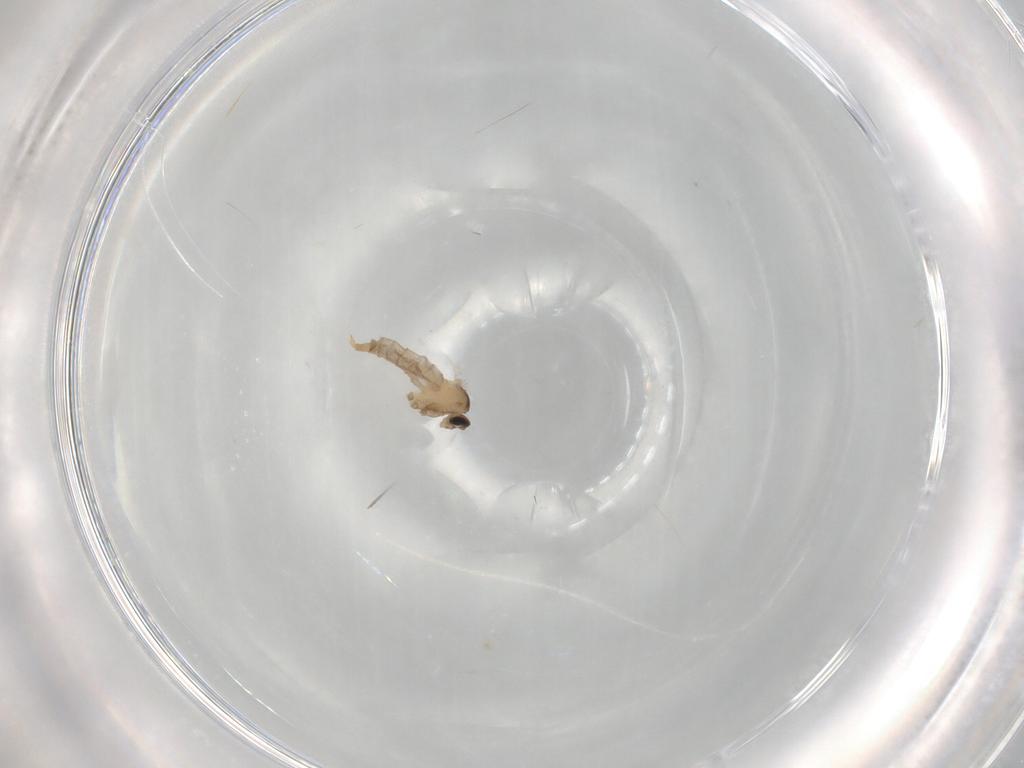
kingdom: Animalia
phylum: Arthropoda
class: Insecta
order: Diptera
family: Cecidomyiidae
